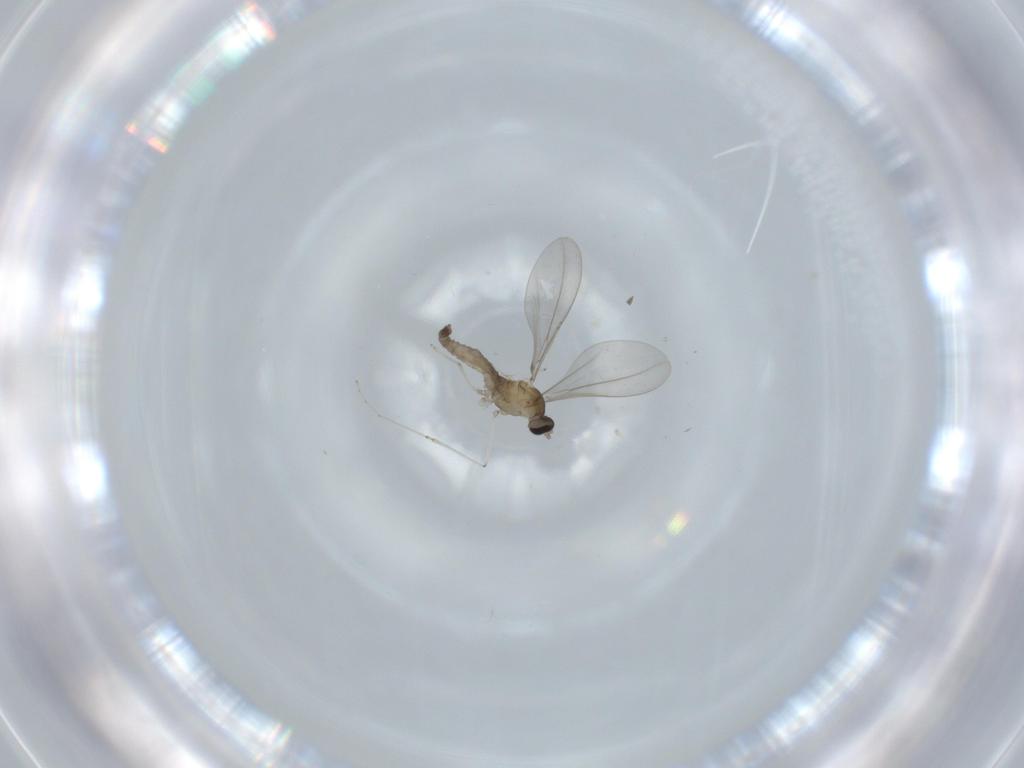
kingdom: Animalia
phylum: Arthropoda
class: Insecta
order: Diptera
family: Cecidomyiidae
